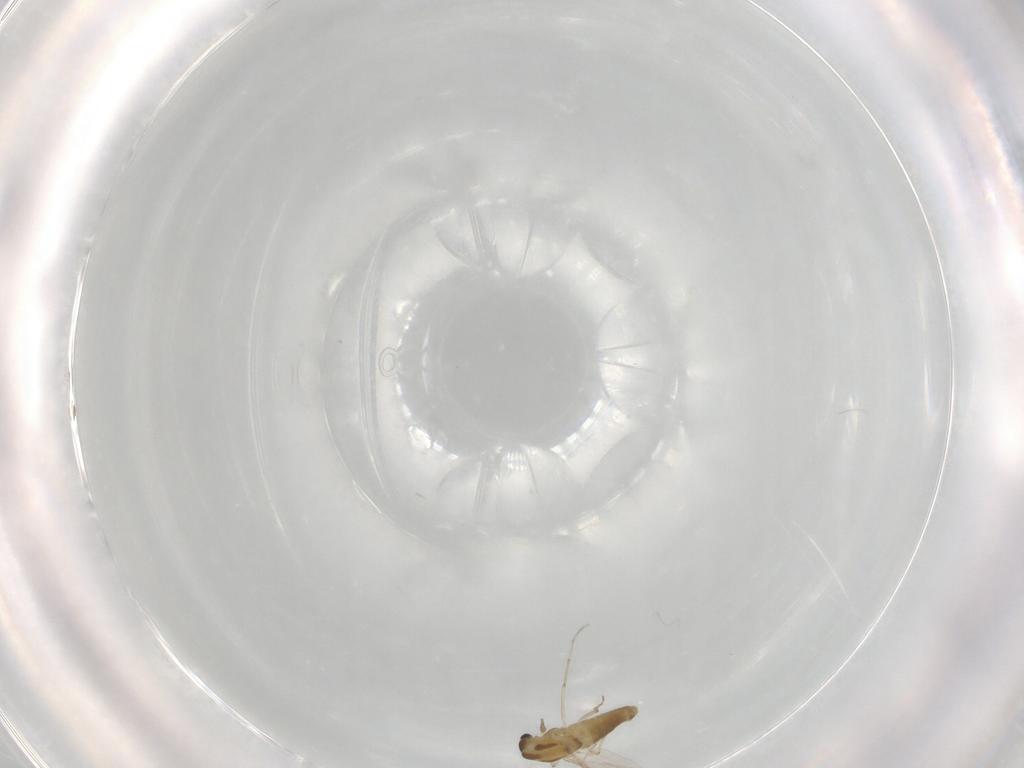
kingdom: Animalia
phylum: Arthropoda
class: Insecta
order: Diptera
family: Chironomidae
